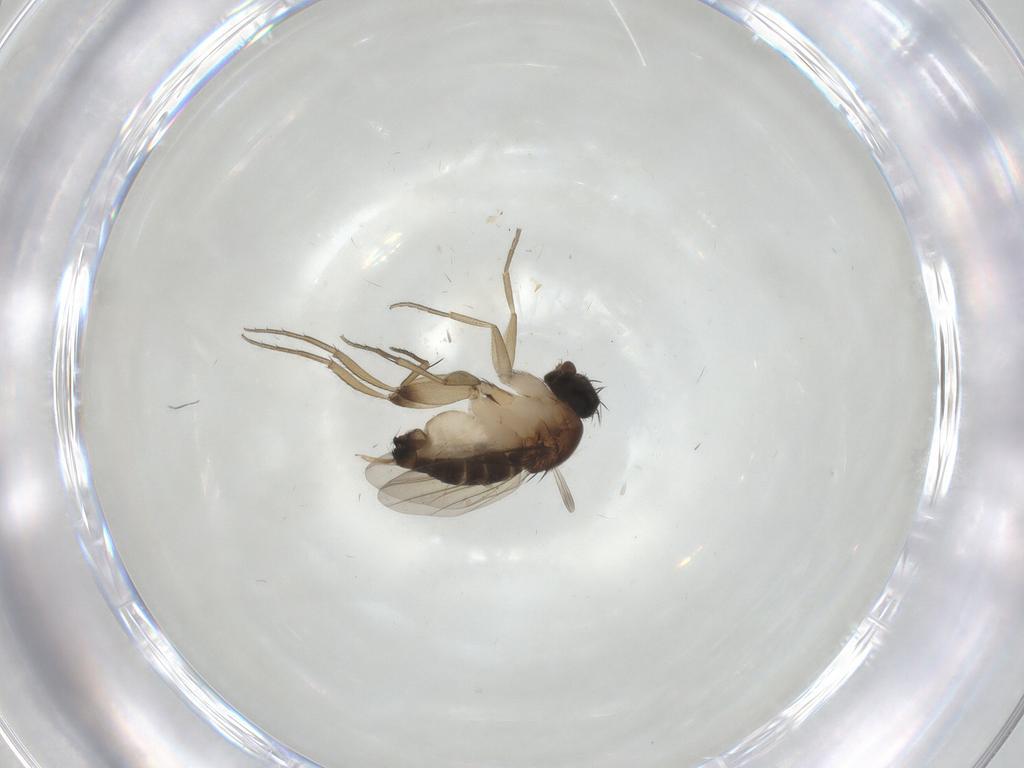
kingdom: Animalia
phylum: Arthropoda
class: Insecta
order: Diptera
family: Phoridae
